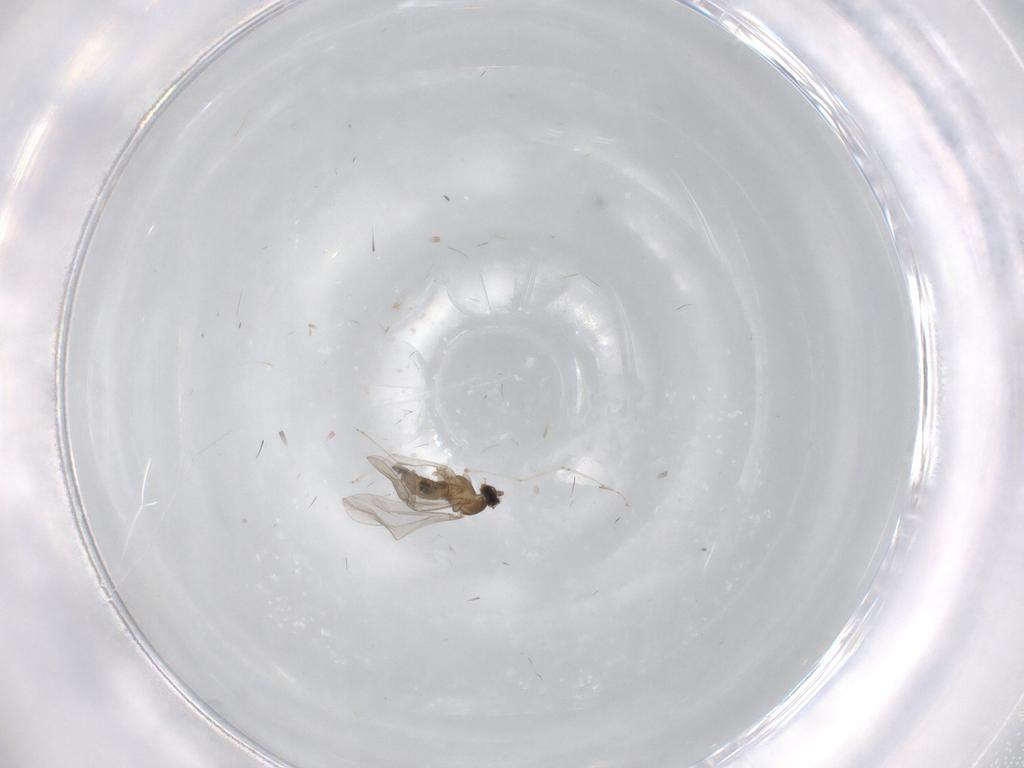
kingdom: Animalia
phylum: Arthropoda
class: Insecta
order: Diptera
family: Cecidomyiidae
